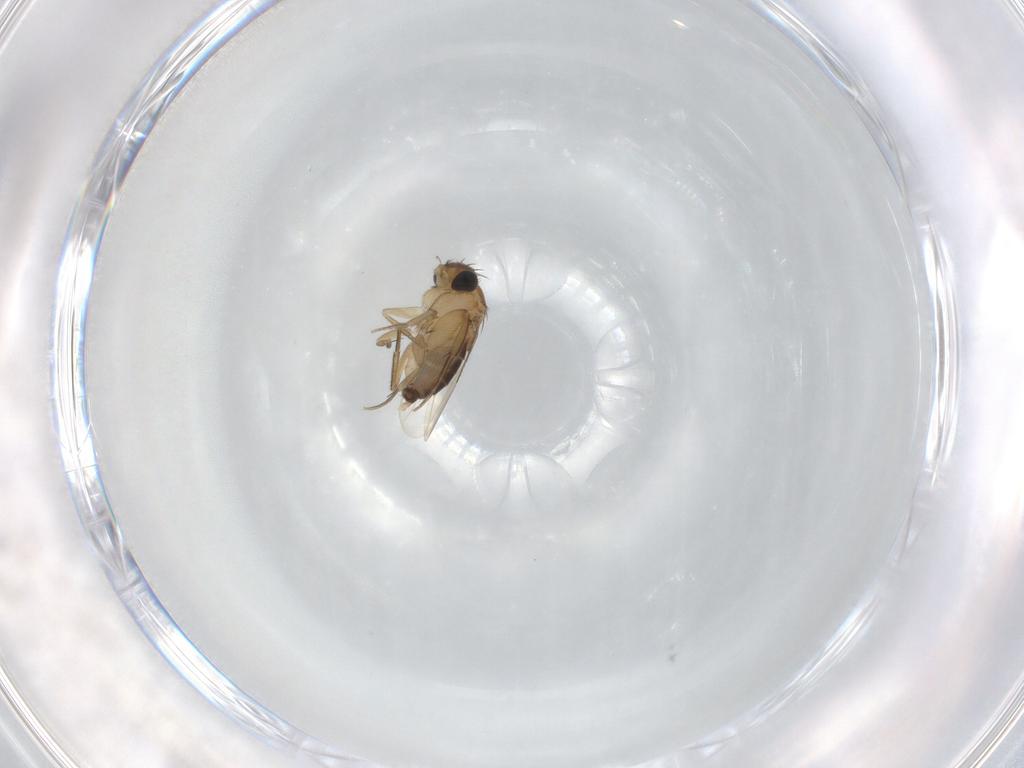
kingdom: Animalia
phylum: Arthropoda
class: Insecta
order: Diptera
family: Phoridae
